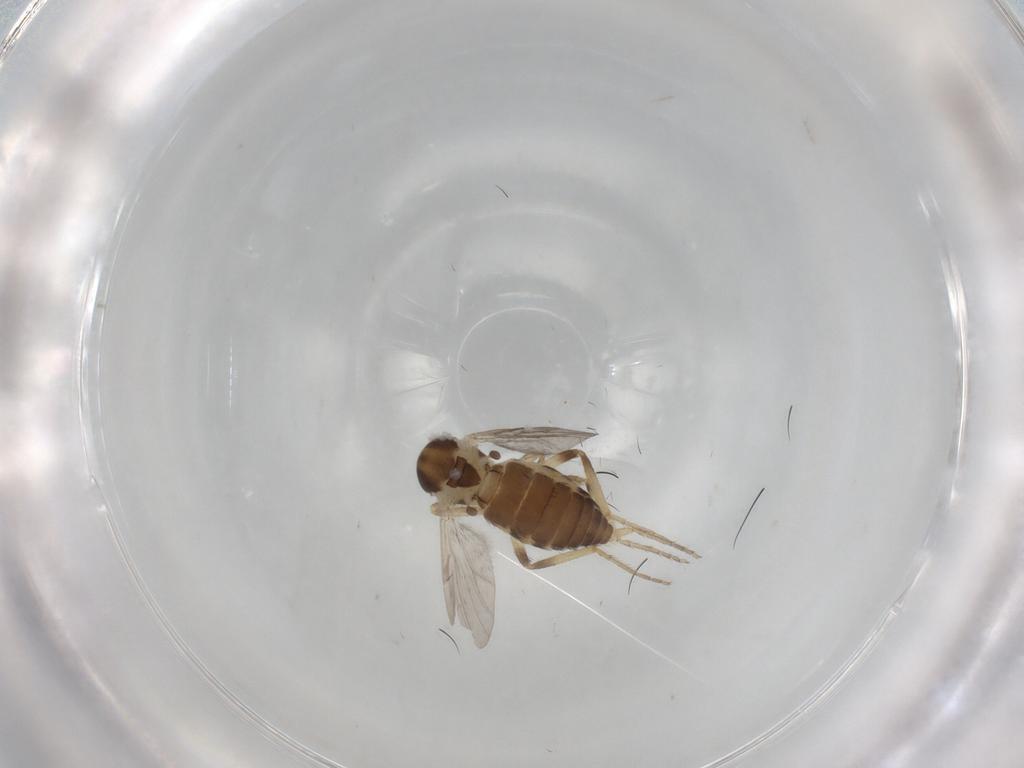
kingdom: Animalia
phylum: Arthropoda
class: Insecta
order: Diptera
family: Ceratopogonidae
